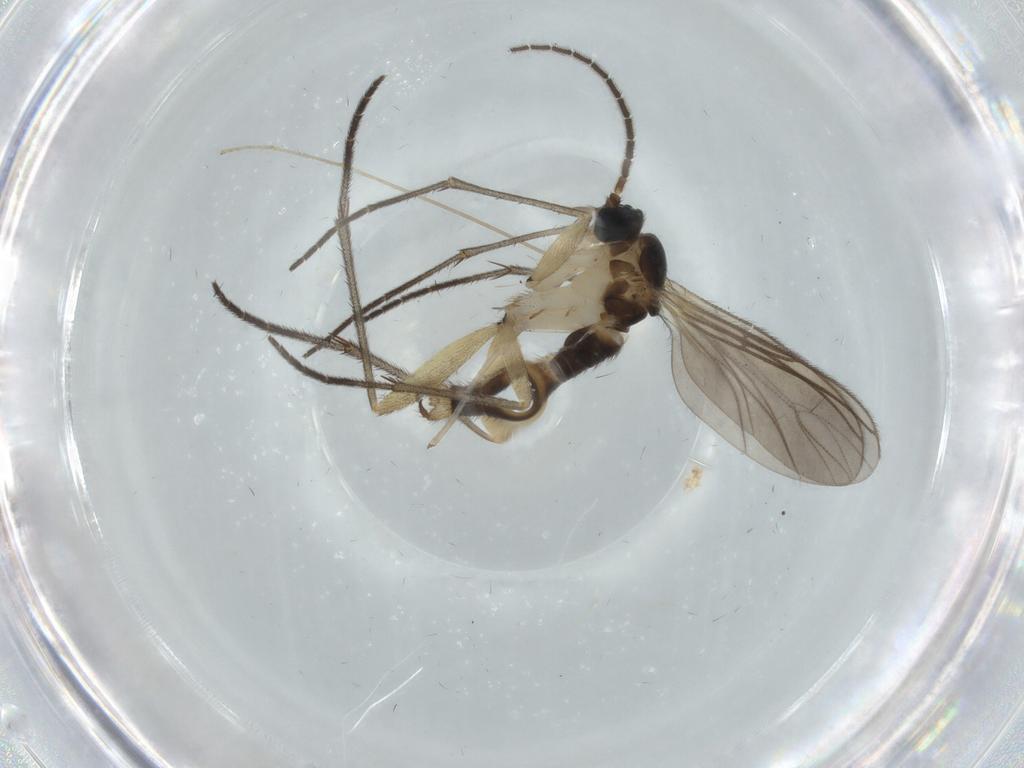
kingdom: Animalia
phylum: Arthropoda
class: Insecta
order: Diptera
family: Sciaridae
